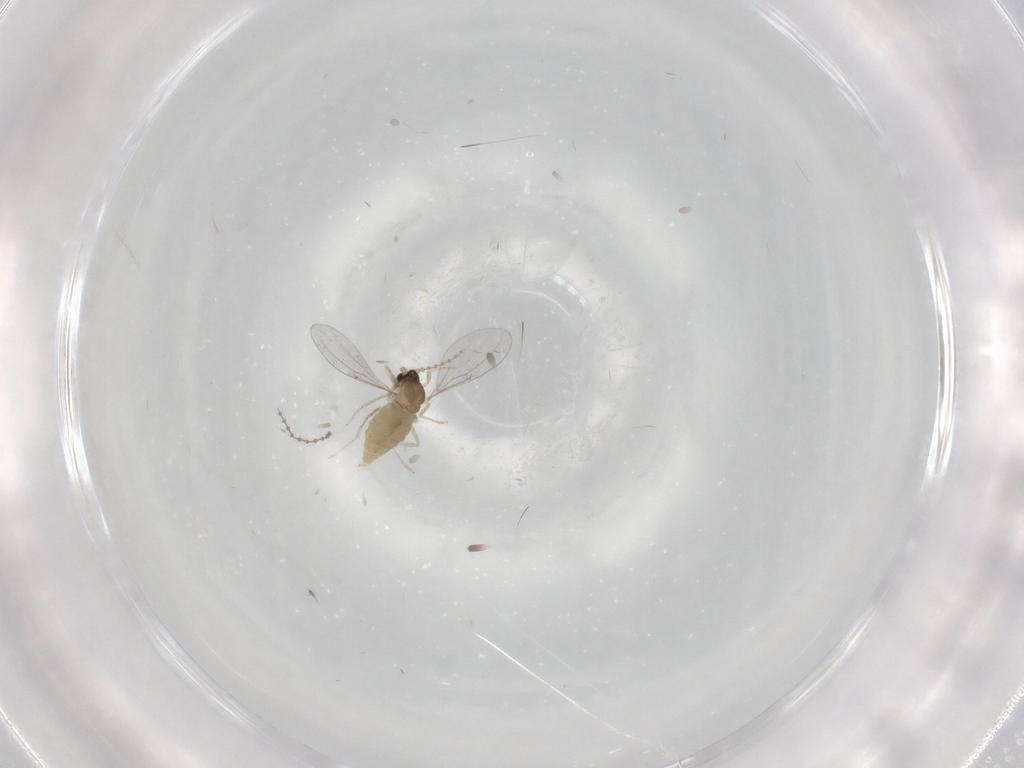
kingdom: Animalia
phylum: Arthropoda
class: Insecta
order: Diptera
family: Cecidomyiidae
